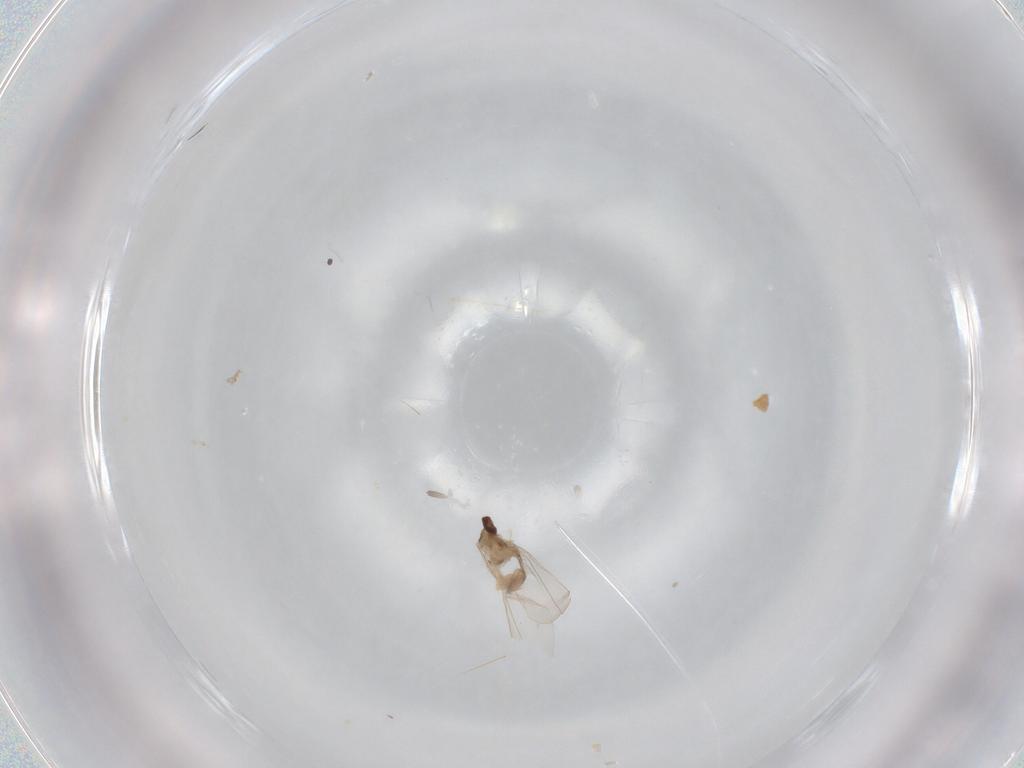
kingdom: Animalia
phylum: Arthropoda
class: Insecta
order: Diptera
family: Cecidomyiidae
